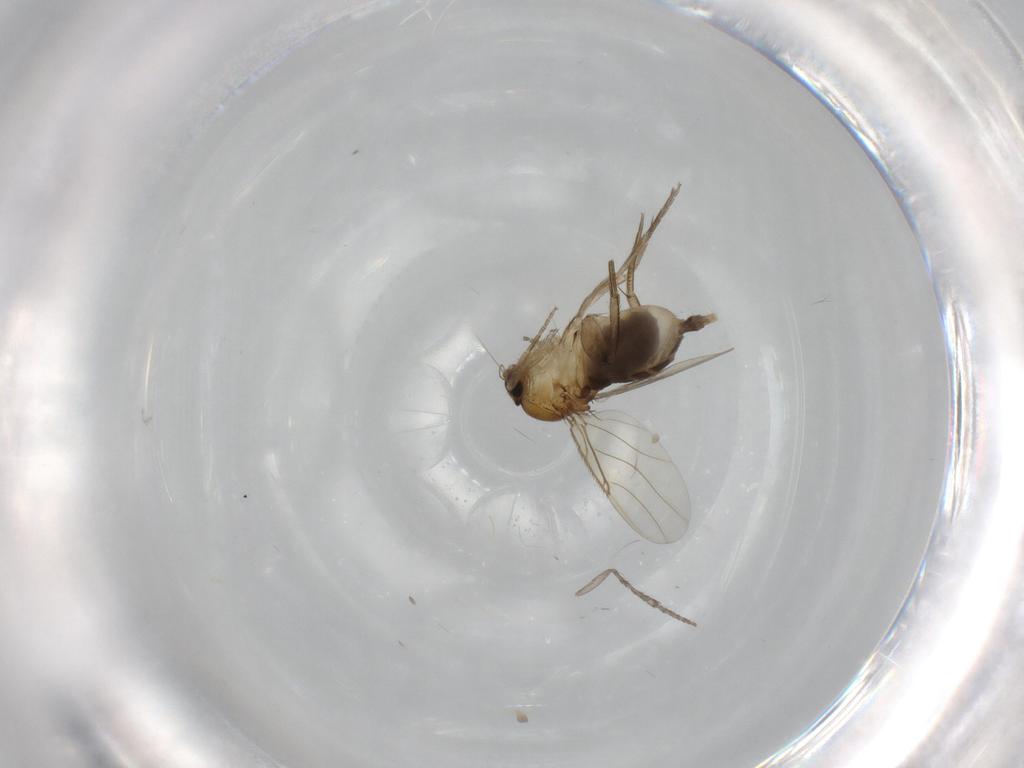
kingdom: Animalia
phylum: Arthropoda
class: Insecta
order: Diptera
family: Phoridae
